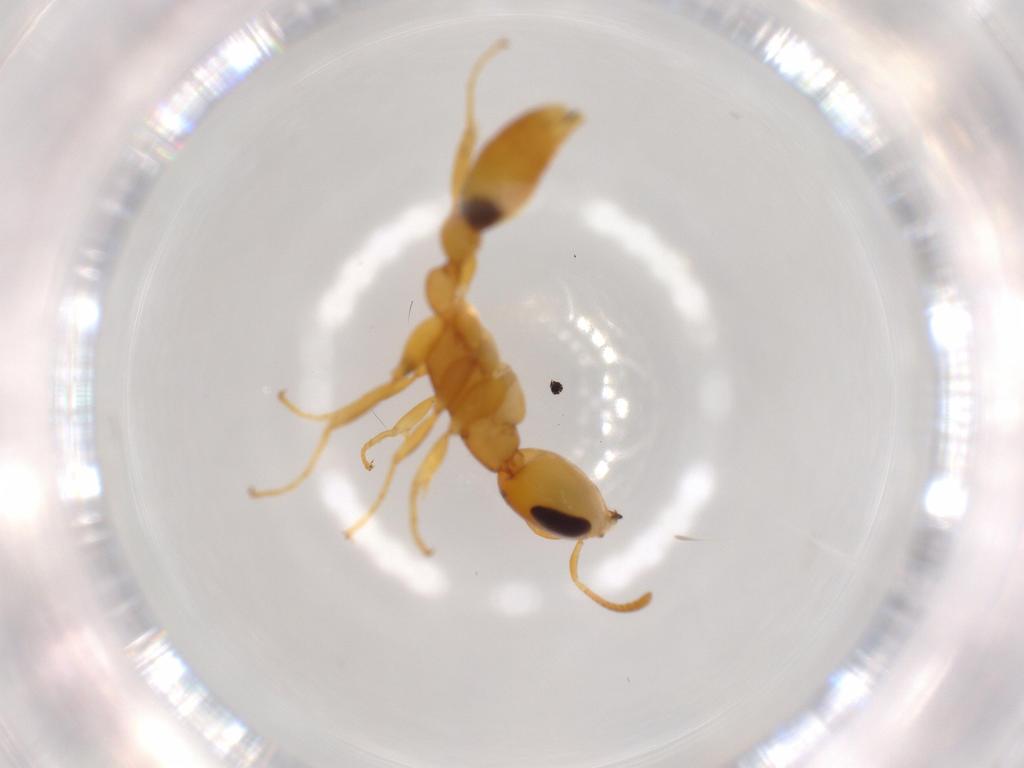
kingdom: Animalia
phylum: Arthropoda
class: Insecta
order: Hymenoptera
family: Formicidae
